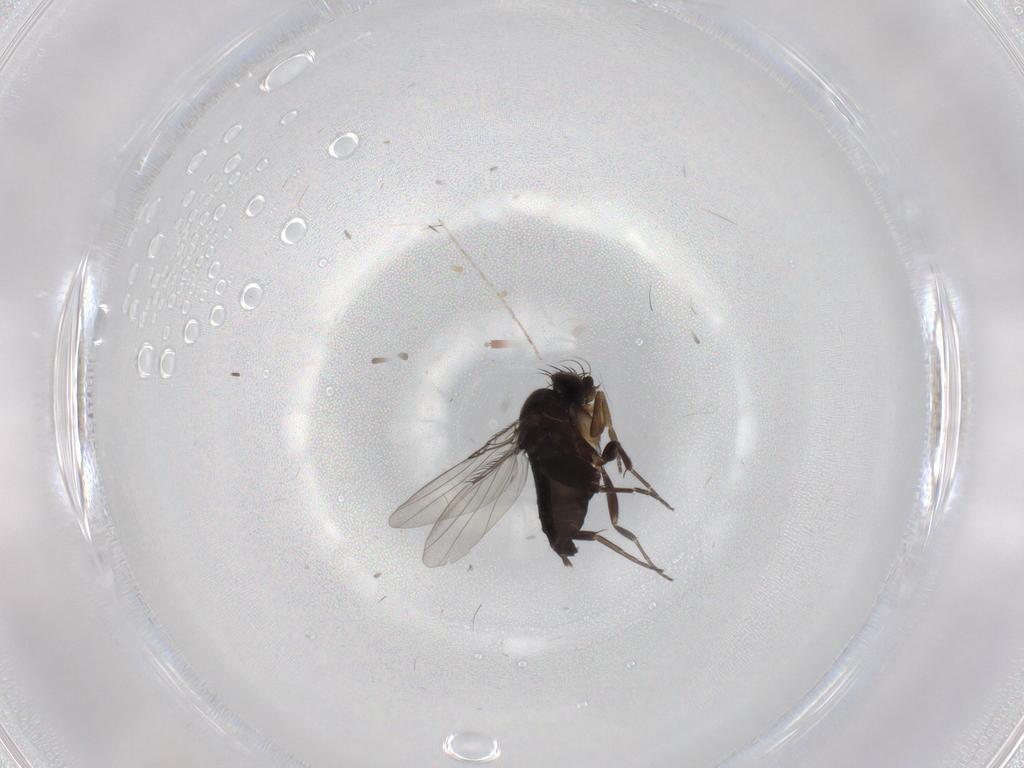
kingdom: Animalia
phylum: Arthropoda
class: Insecta
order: Diptera
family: Phoridae
